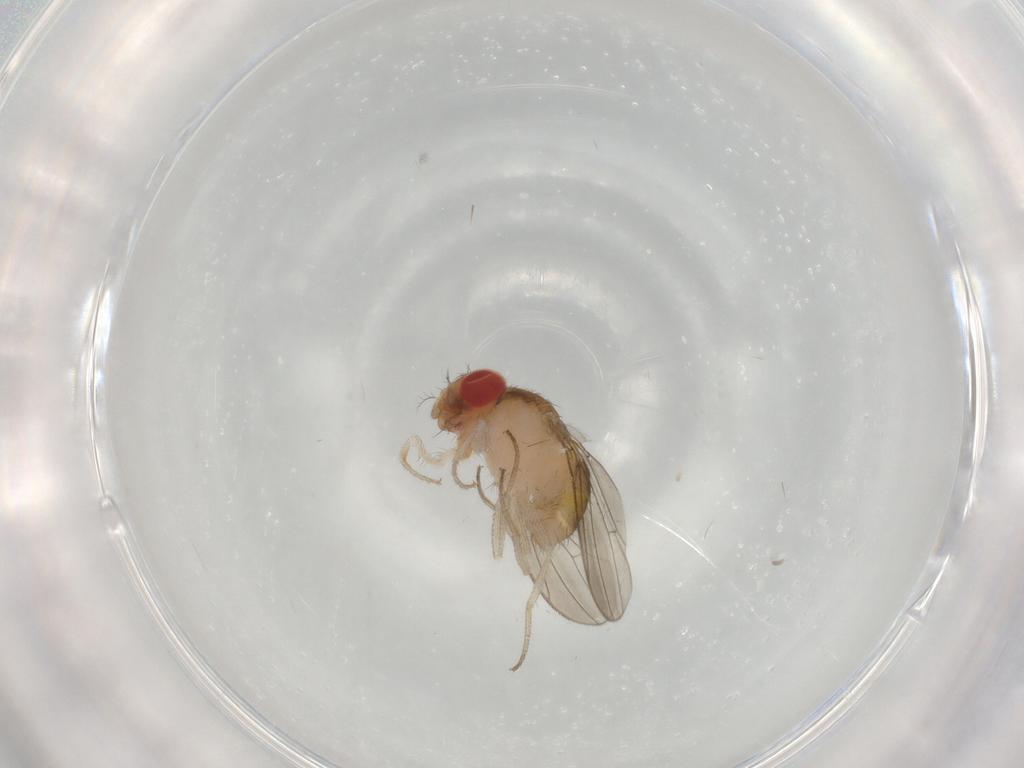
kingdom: Animalia
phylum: Arthropoda
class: Insecta
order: Diptera
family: Drosophilidae
